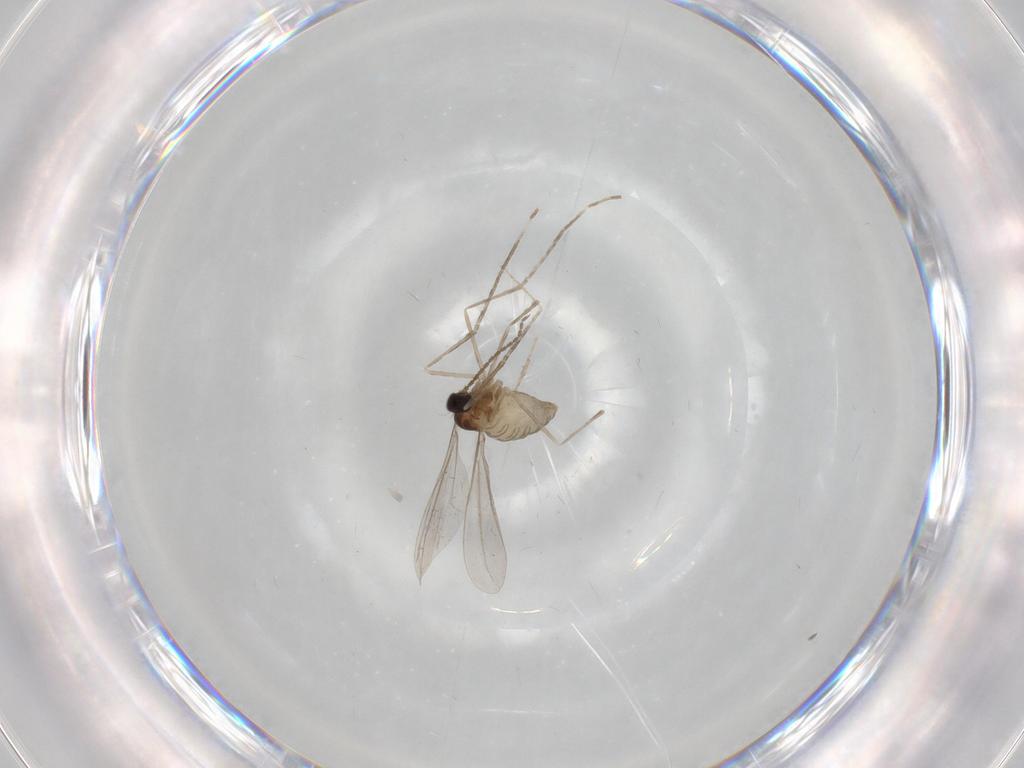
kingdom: Animalia
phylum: Arthropoda
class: Insecta
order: Diptera
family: Cecidomyiidae
